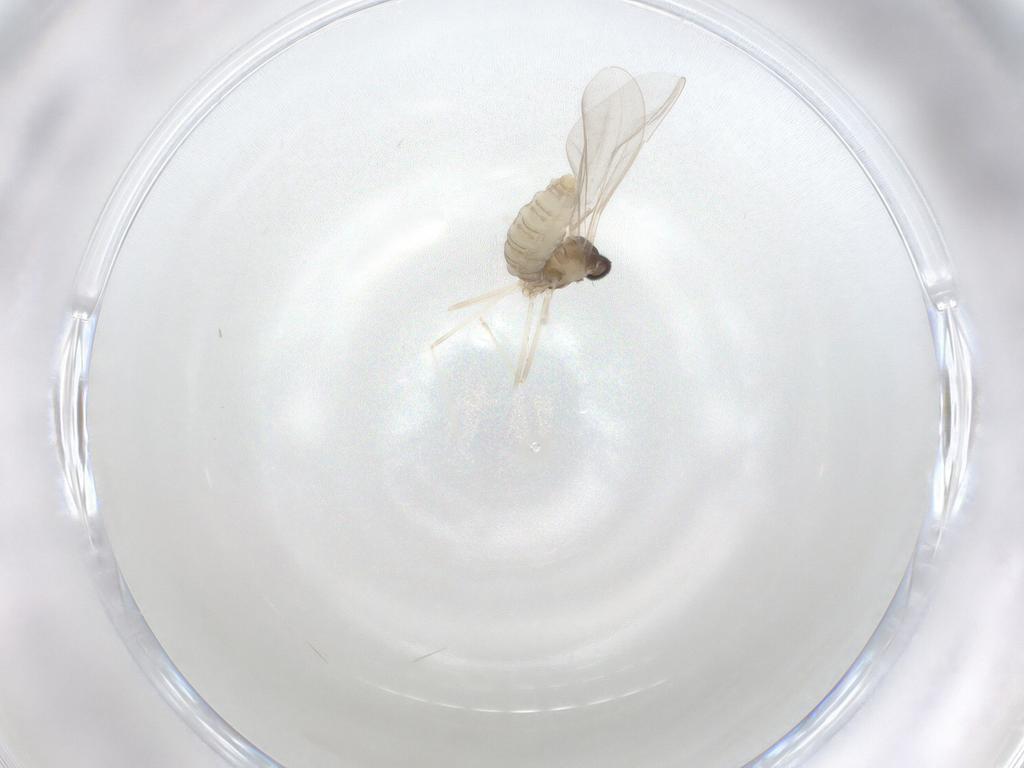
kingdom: Animalia
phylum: Arthropoda
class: Insecta
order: Diptera
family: Cecidomyiidae
